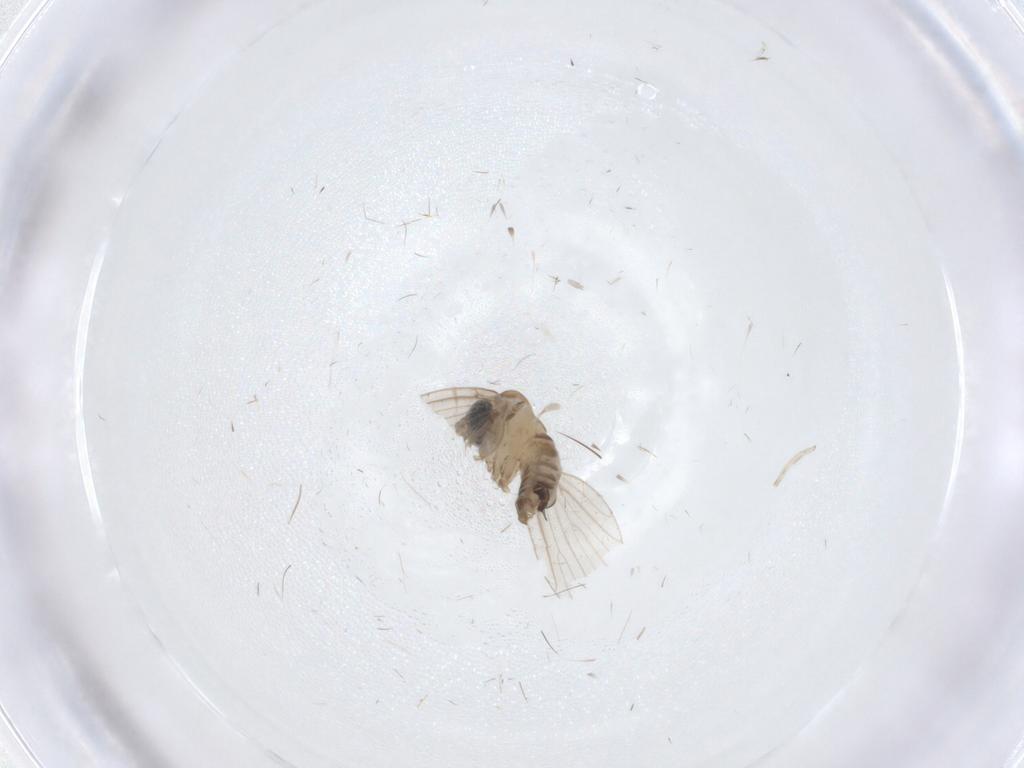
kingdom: Animalia
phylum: Arthropoda
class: Insecta
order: Diptera
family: Psychodidae
